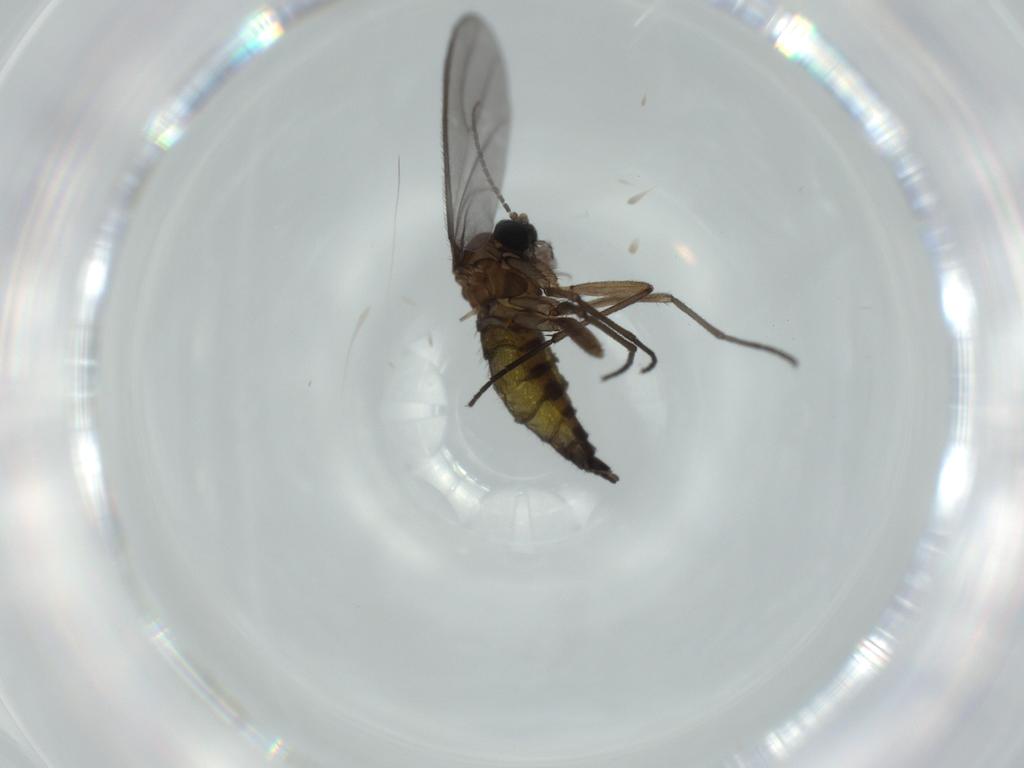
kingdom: Animalia
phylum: Arthropoda
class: Insecta
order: Diptera
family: Sciaridae
